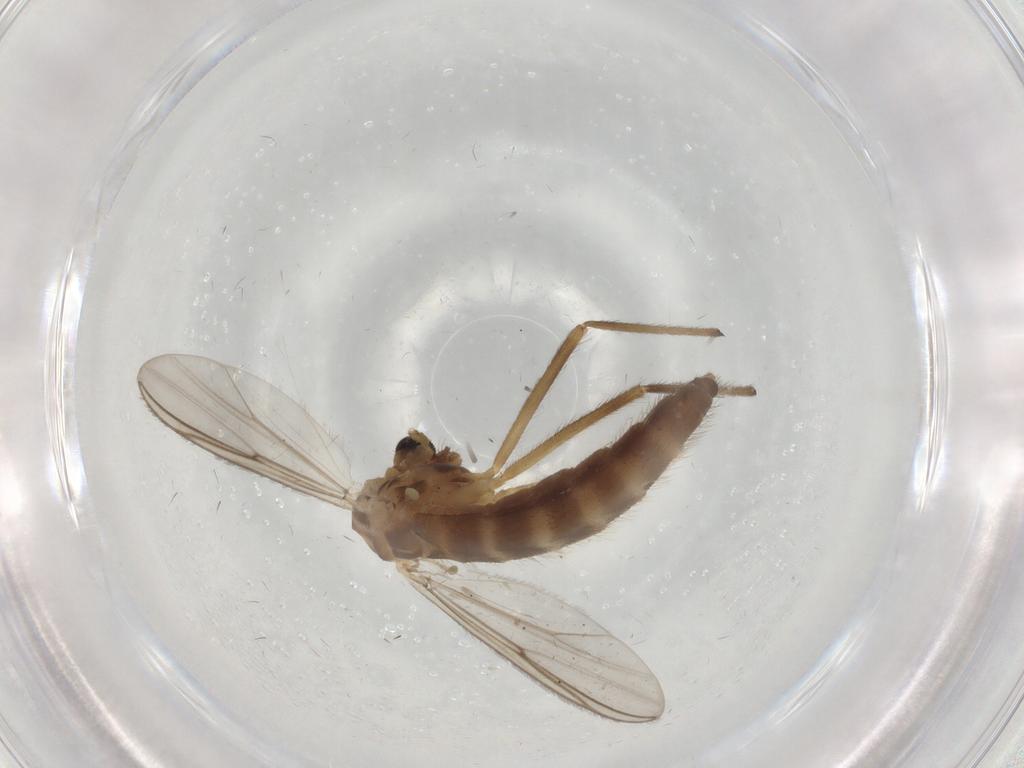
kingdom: Animalia
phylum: Arthropoda
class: Insecta
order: Diptera
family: Chironomidae
